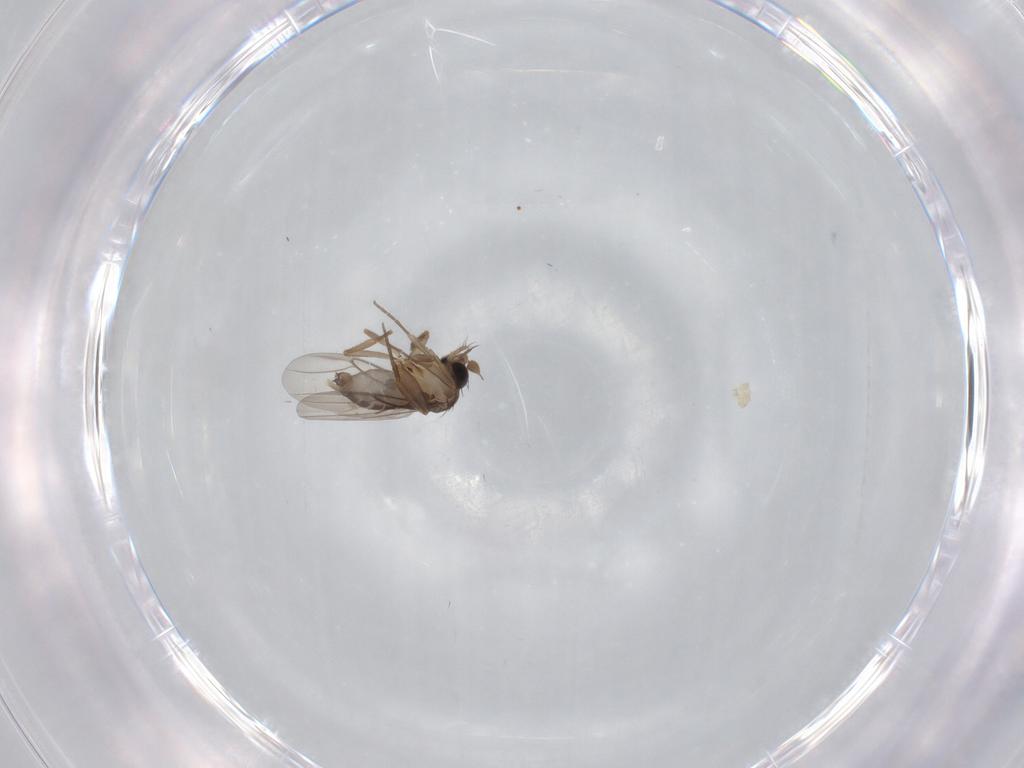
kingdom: Animalia
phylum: Arthropoda
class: Insecta
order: Diptera
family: Phoridae
